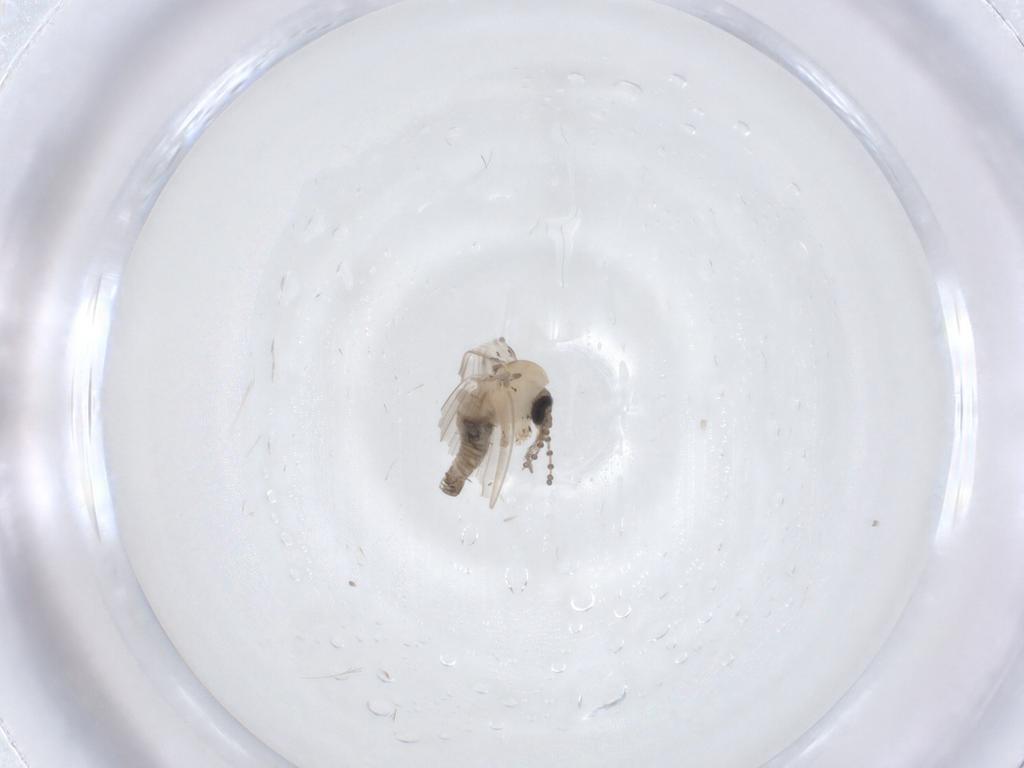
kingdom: Animalia
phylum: Arthropoda
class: Insecta
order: Diptera
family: Psychodidae
